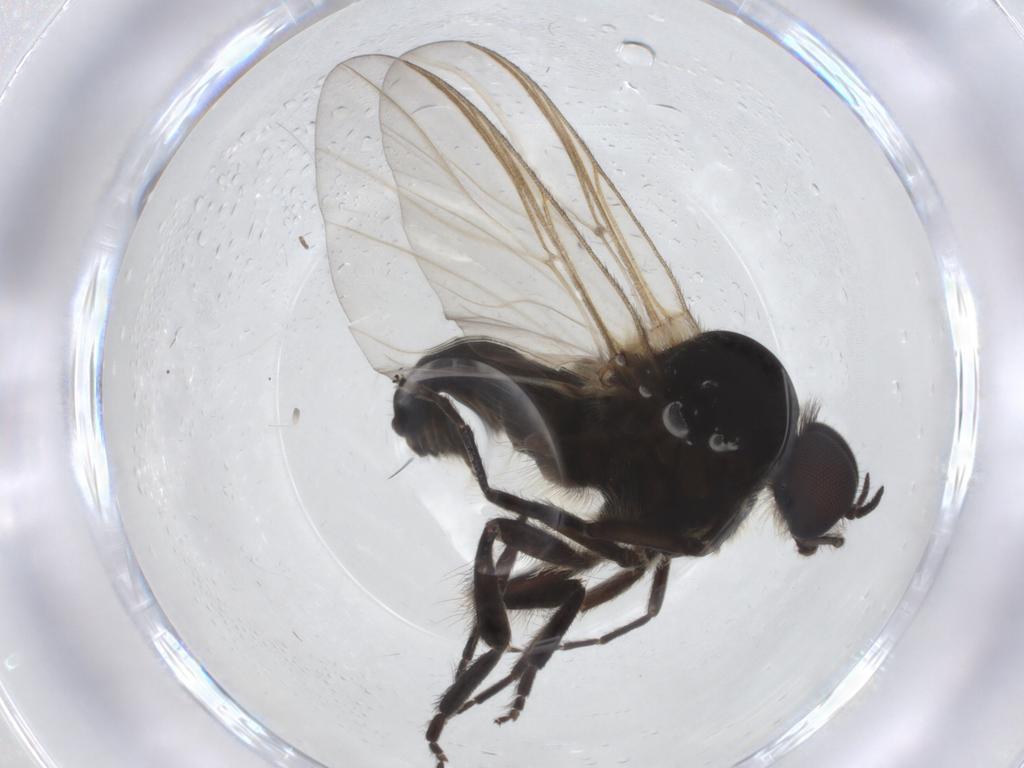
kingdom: Animalia
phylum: Arthropoda
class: Insecta
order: Diptera
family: Chironomidae
